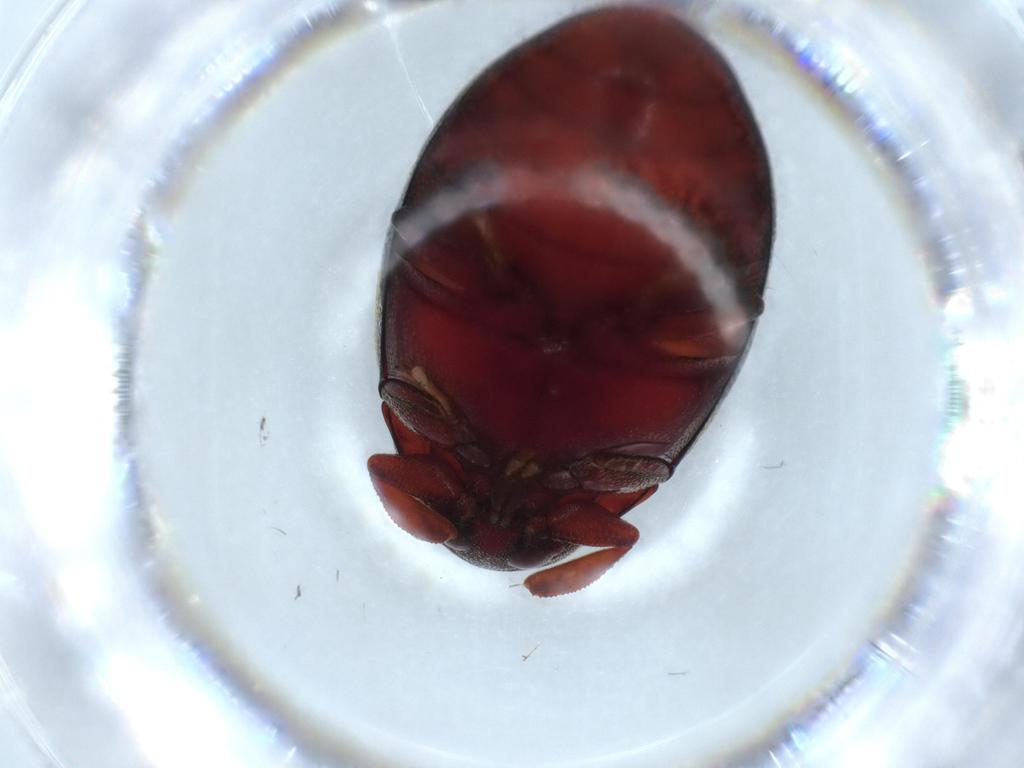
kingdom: Animalia
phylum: Arthropoda
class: Insecta
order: Coleoptera
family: Chelonariidae
